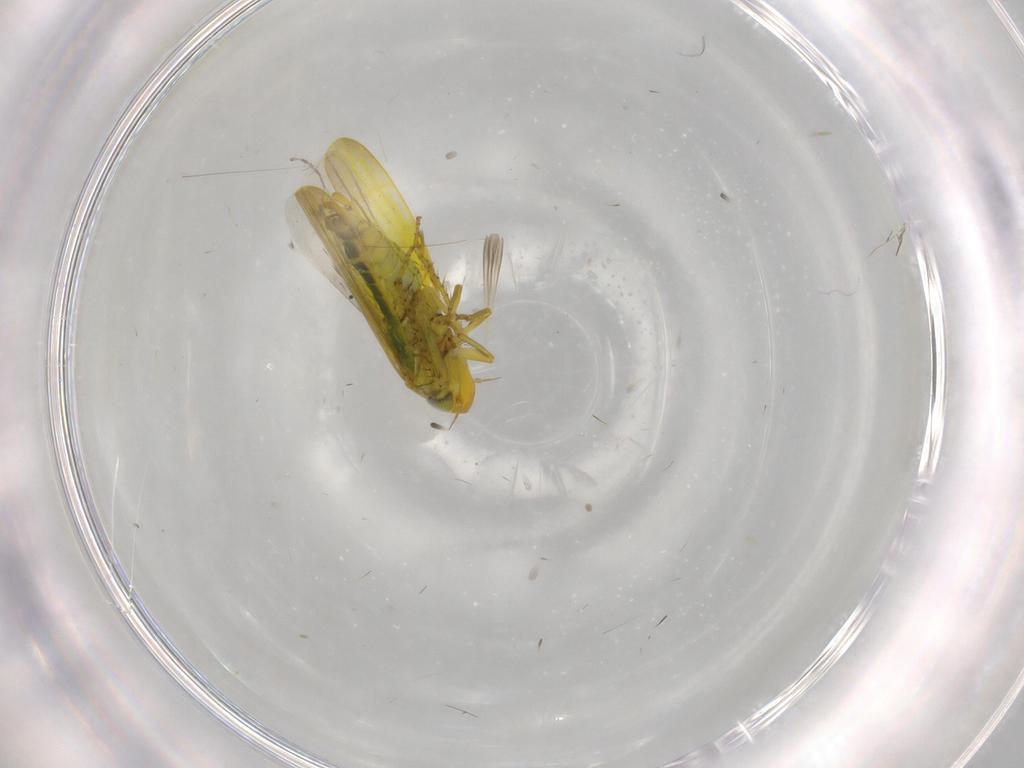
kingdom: Animalia
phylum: Arthropoda
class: Insecta
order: Hemiptera
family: Cicadellidae
